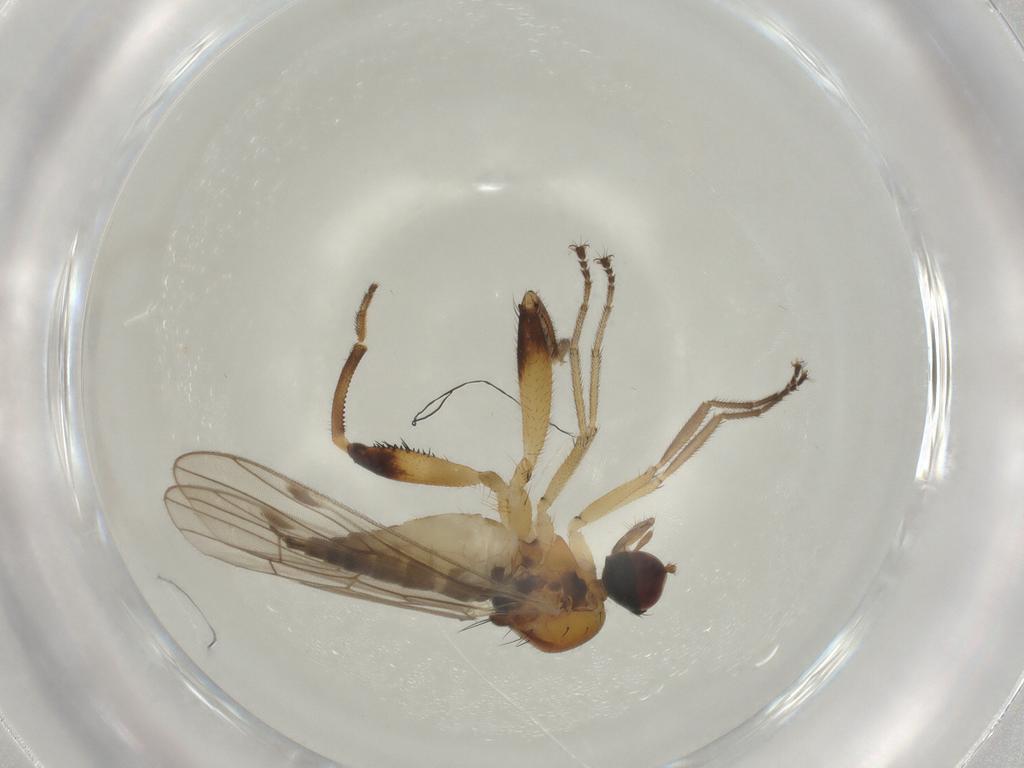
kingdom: Animalia
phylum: Arthropoda
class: Insecta
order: Diptera
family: Hybotidae
